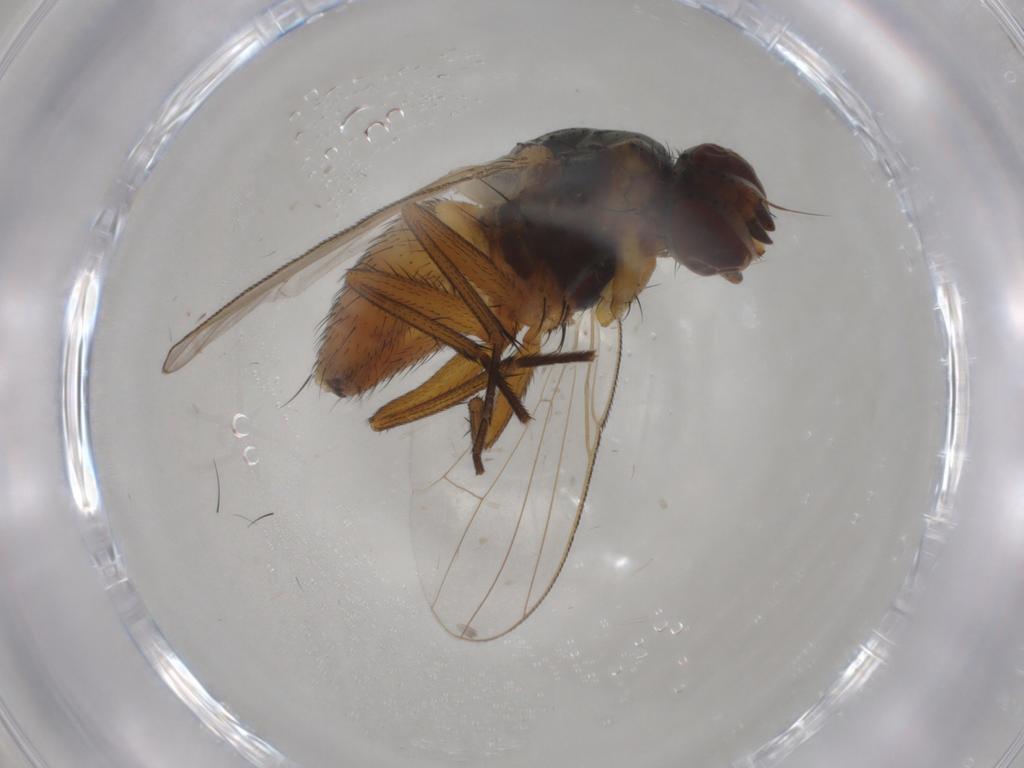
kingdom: Animalia
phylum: Arthropoda
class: Insecta
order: Diptera
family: Muscidae
